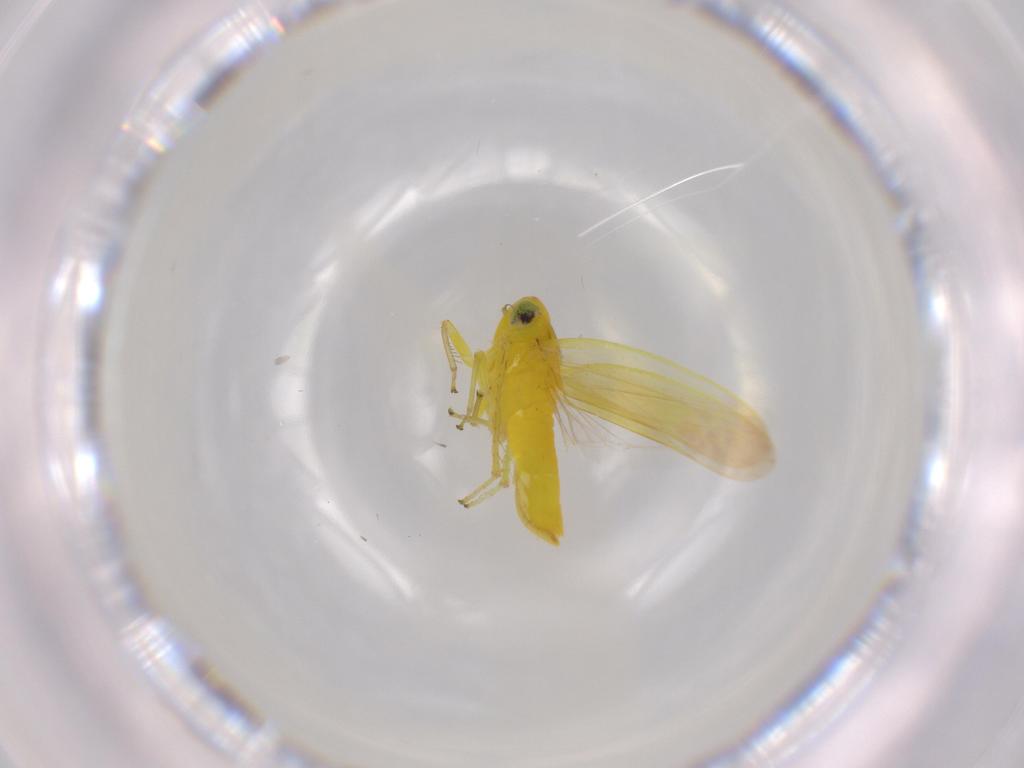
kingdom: Animalia
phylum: Arthropoda
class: Insecta
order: Hemiptera
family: Cicadellidae
